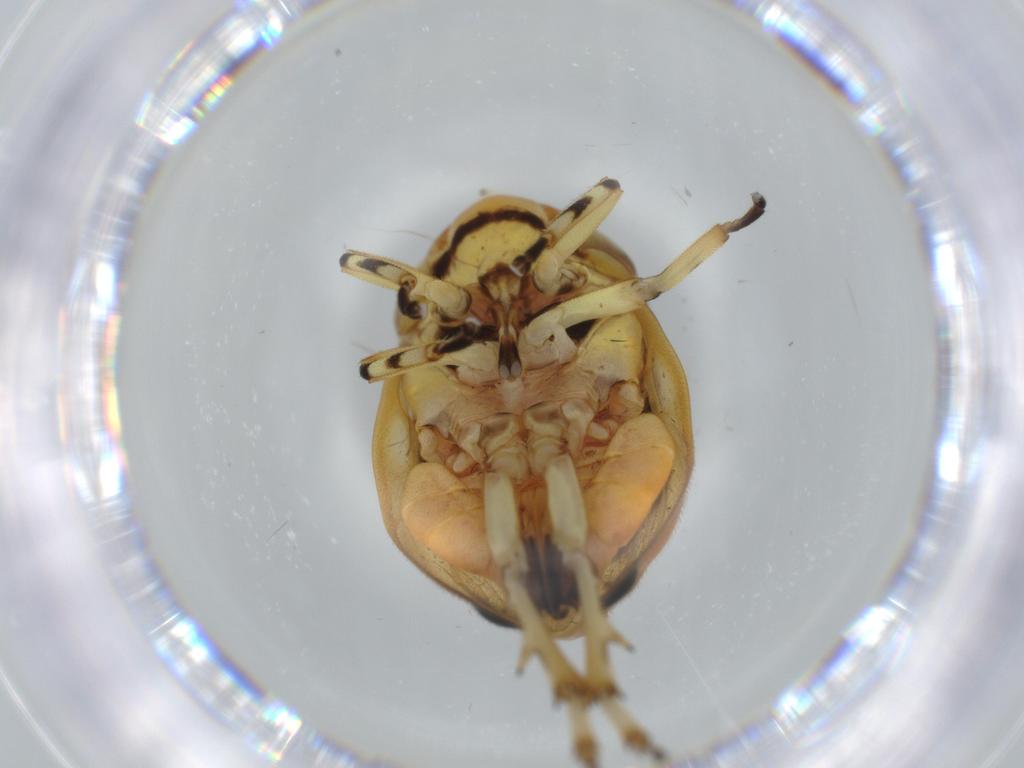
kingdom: Animalia
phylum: Arthropoda
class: Insecta
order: Hemiptera
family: Clastopteridae
